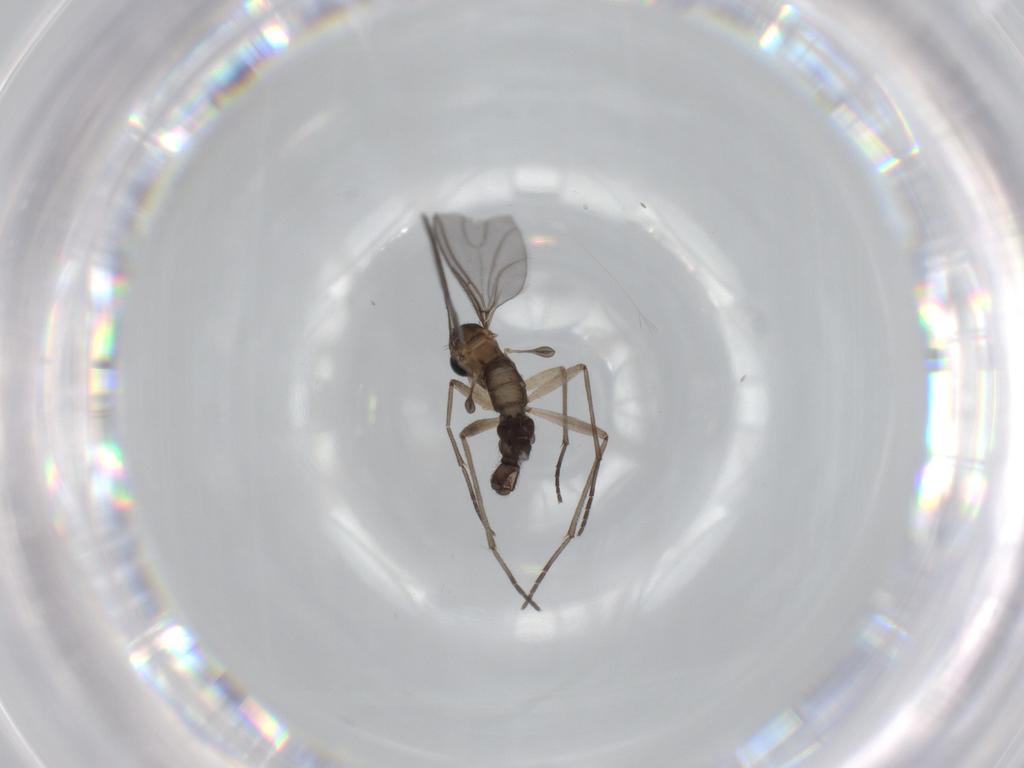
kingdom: Animalia
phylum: Arthropoda
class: Insecta
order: Diptera
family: Sciaridae
